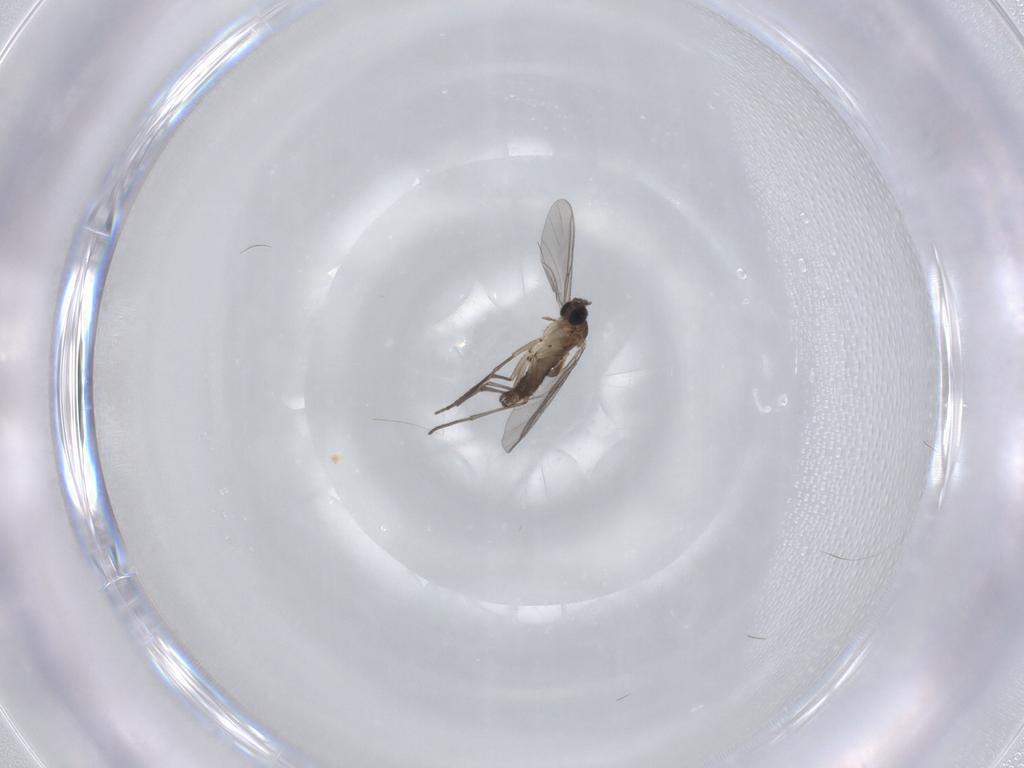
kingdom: Animalia
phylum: Arthropoda
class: Insecta
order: Diptera
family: Sciaridae
